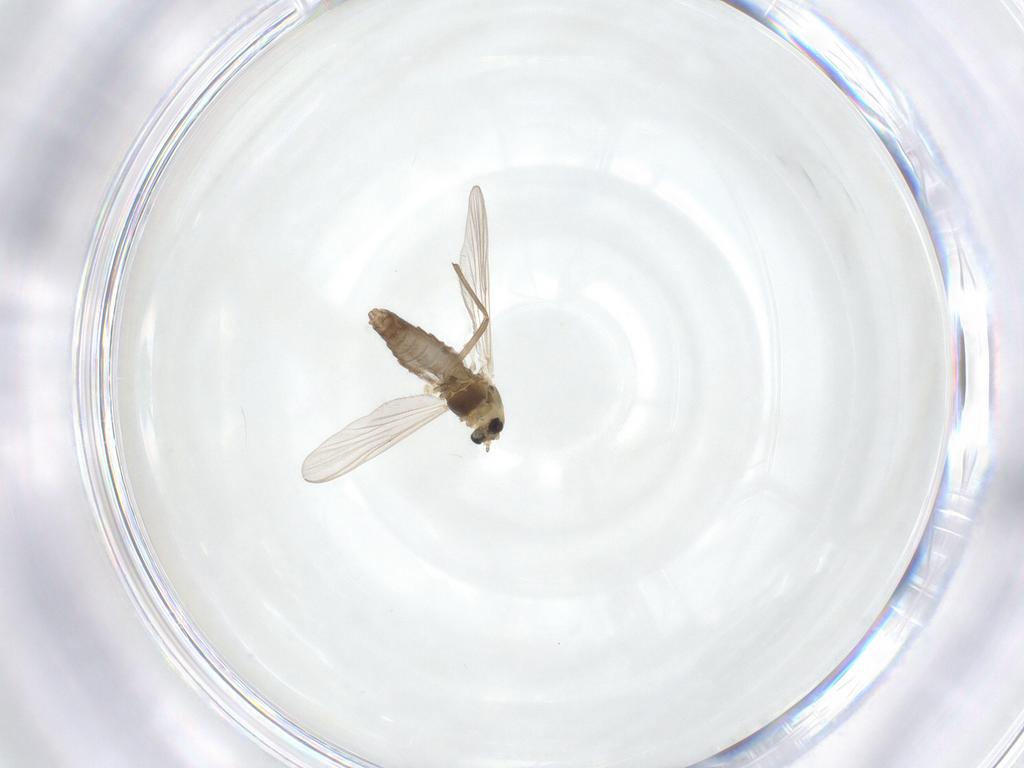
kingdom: Animalia
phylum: Arthropoda
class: Insecta
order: Diptera
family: Chironomidae
